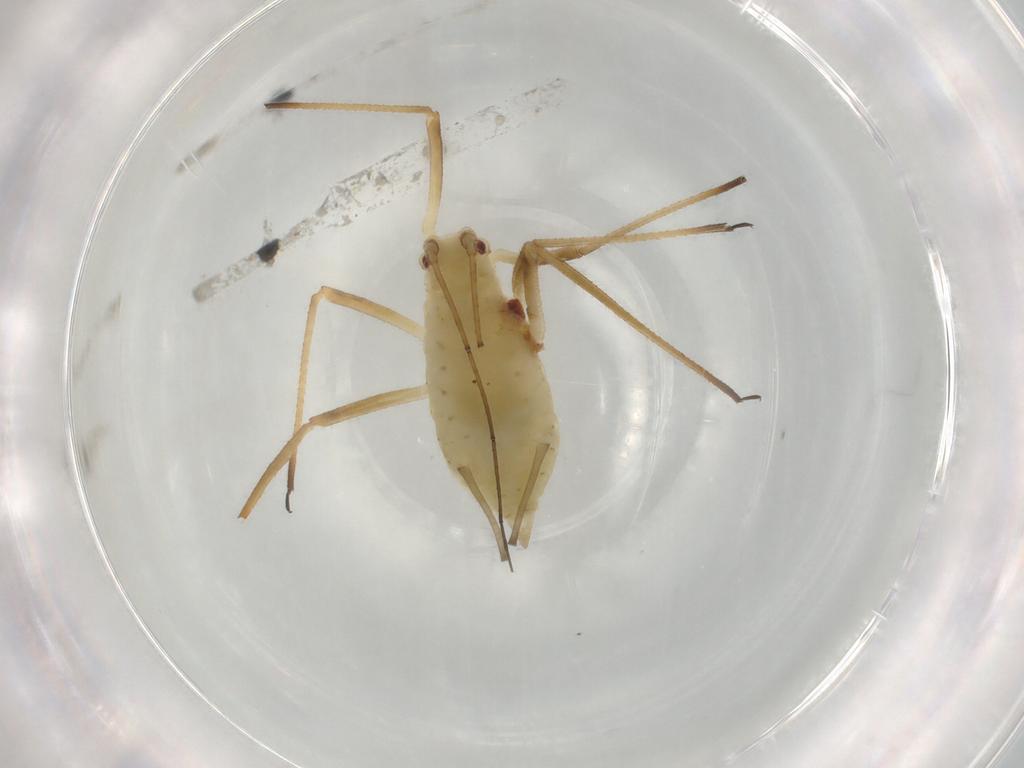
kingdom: Animalia
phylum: Arthropoda
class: Insecta
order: Hemiptera
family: Aphididae
